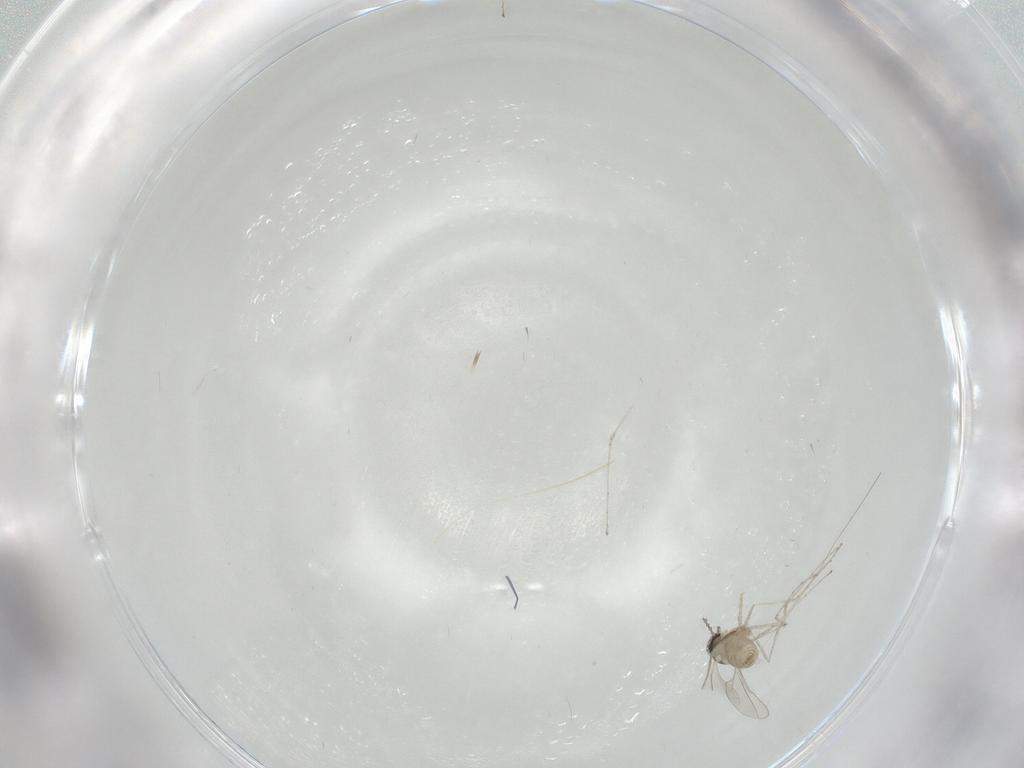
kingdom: Animalia
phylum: Arthropoda
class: Insecta
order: Diptera
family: Cecidomyiidae
